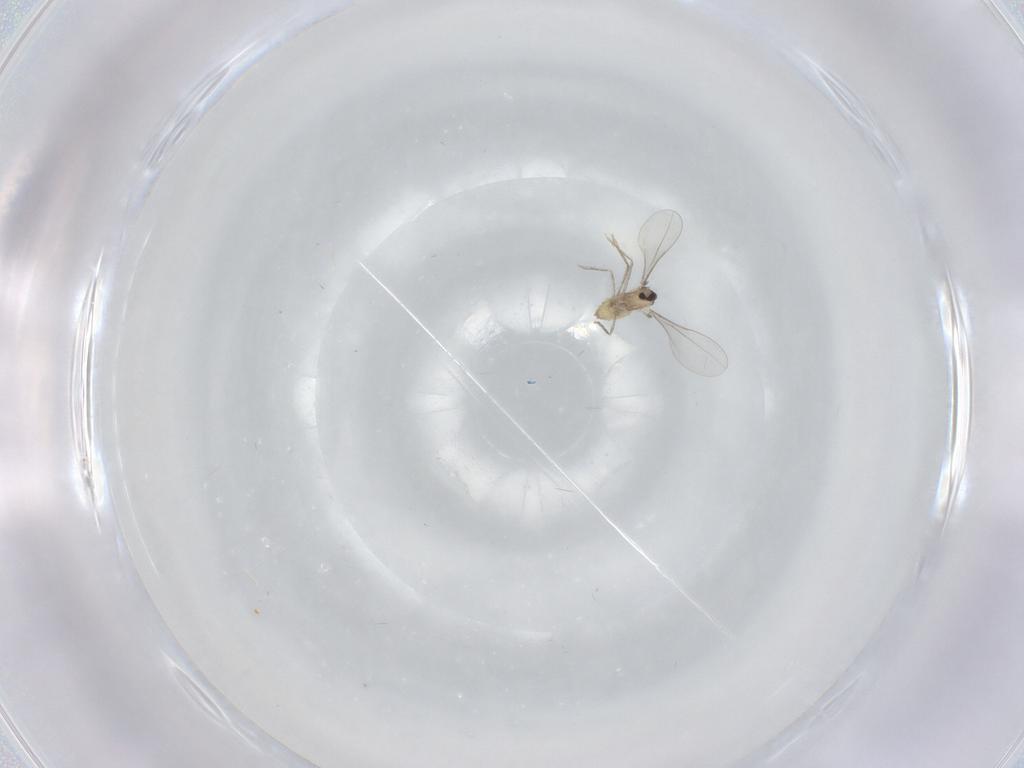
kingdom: Animalia
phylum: Arthropoda
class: Insecta
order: Diptera
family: Cecidomyiidae
